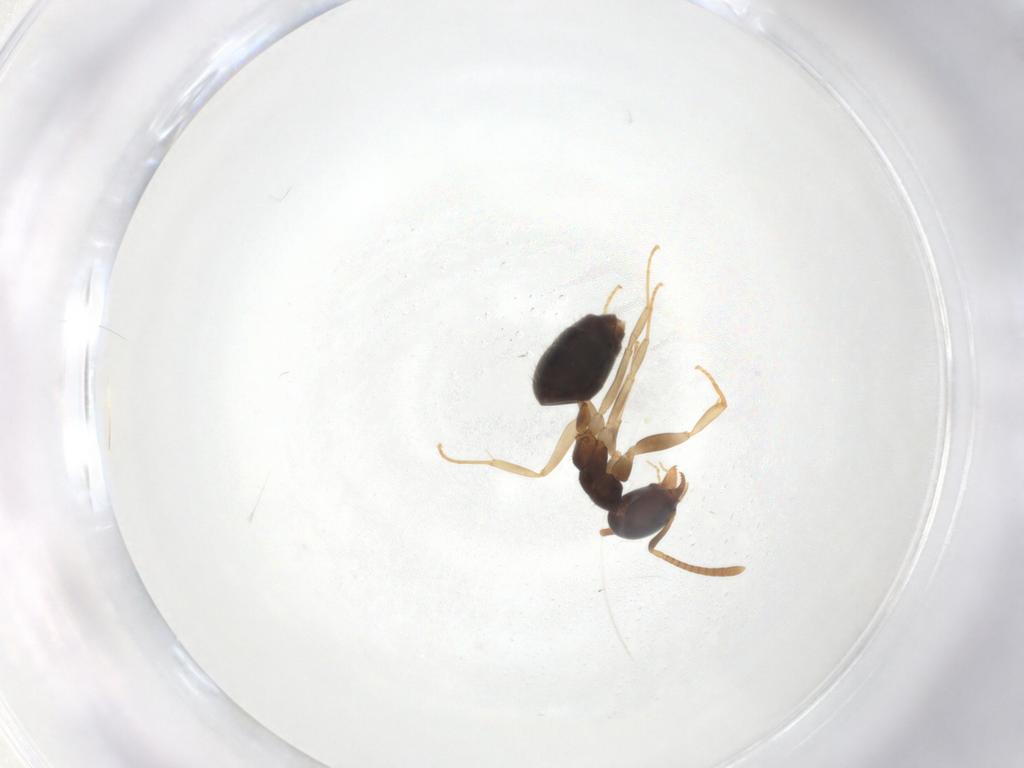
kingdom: Animalia
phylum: Arthropoda
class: Insecta
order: Hymenoptera
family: Formicidae
